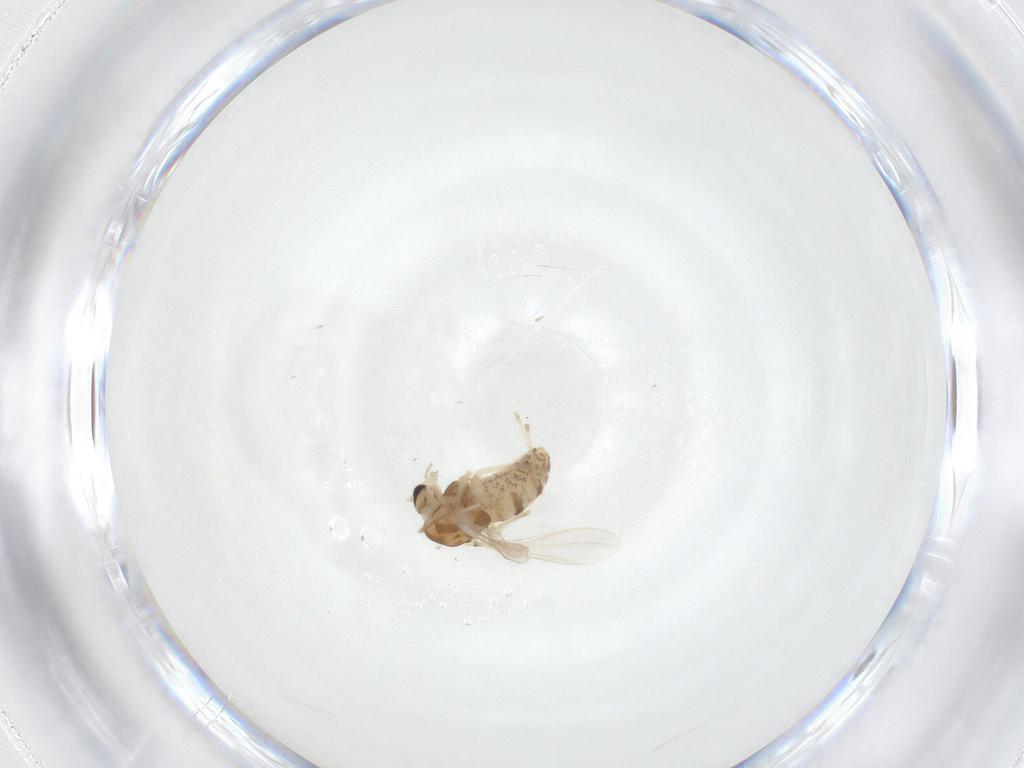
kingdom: Animalia
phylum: Arthropoda
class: Insecta
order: Diptera
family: Chironomidae
